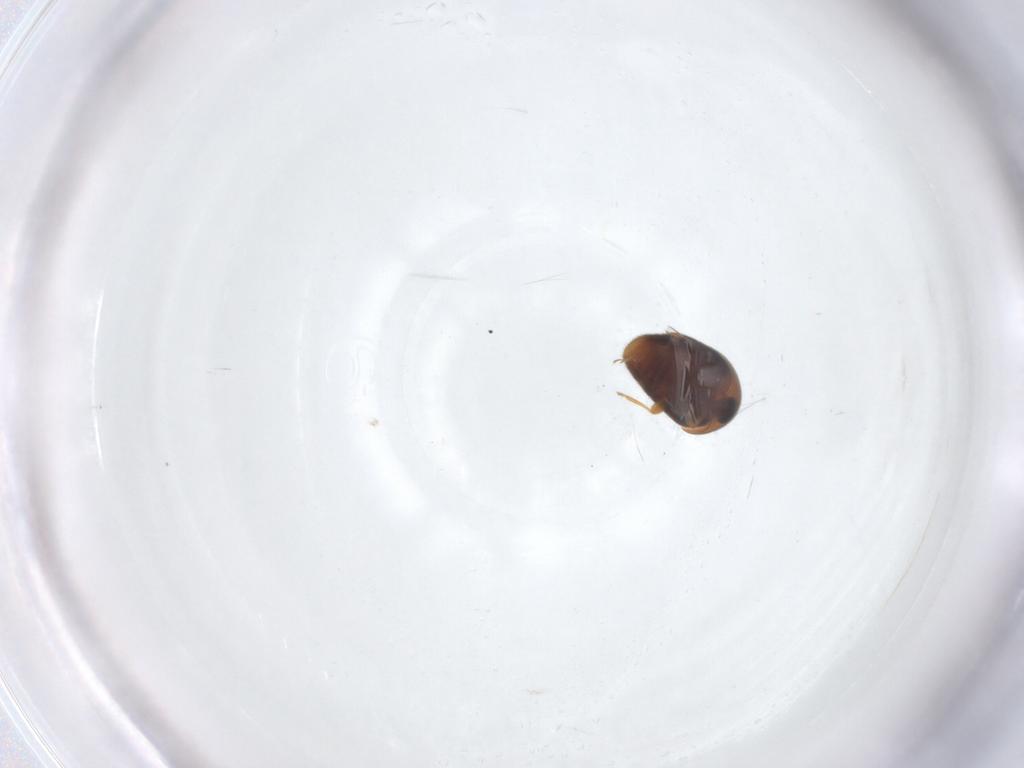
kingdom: Animalia
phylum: Arthropoda
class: Insecta
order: Coleoptera
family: Corylophidae
